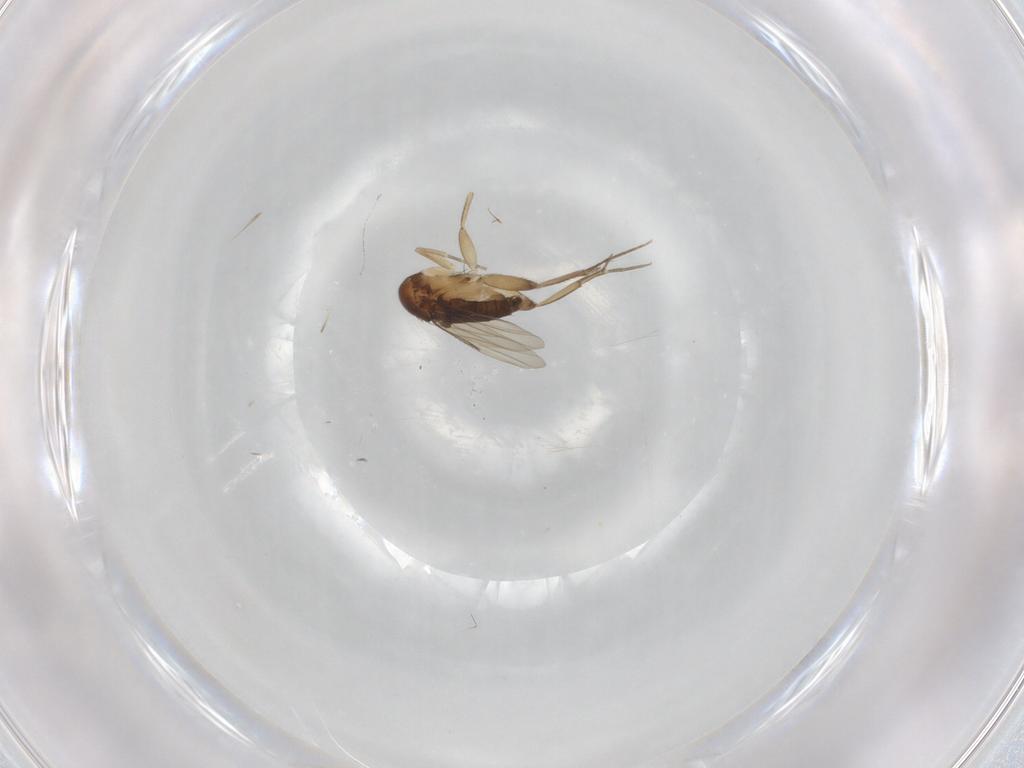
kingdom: Animalia
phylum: Arthropoda
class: Insecta
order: Diptera
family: Phoridae
